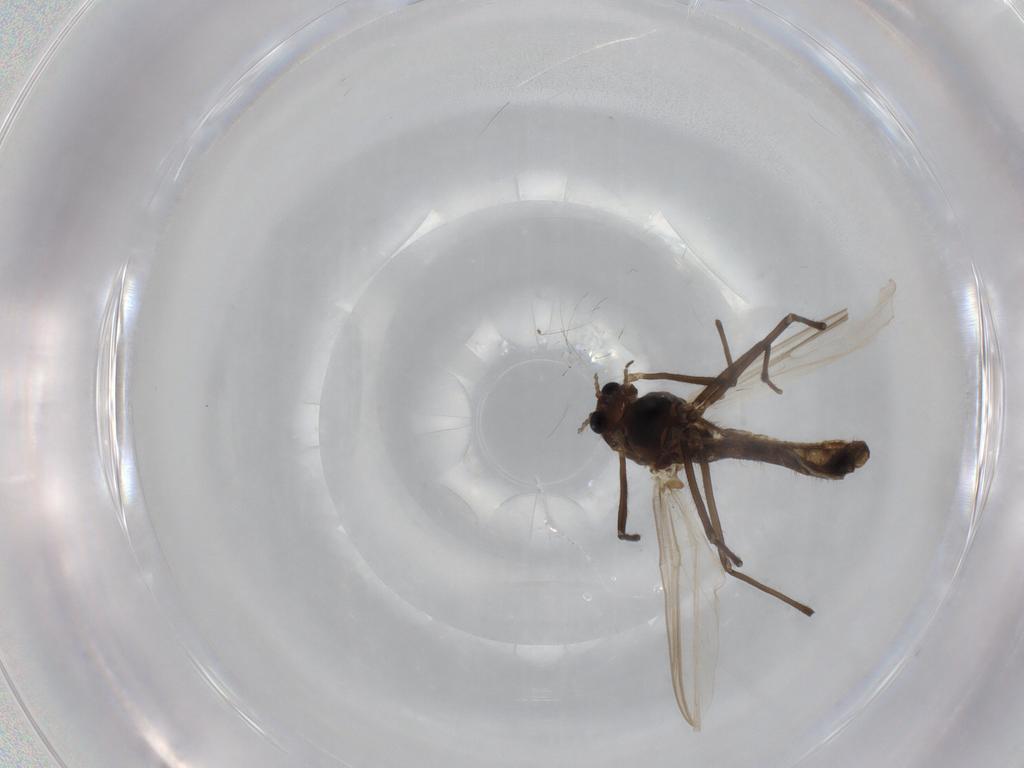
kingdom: Animalia
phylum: Arthropoda
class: Insecta
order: Diptera
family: Chironomidae
